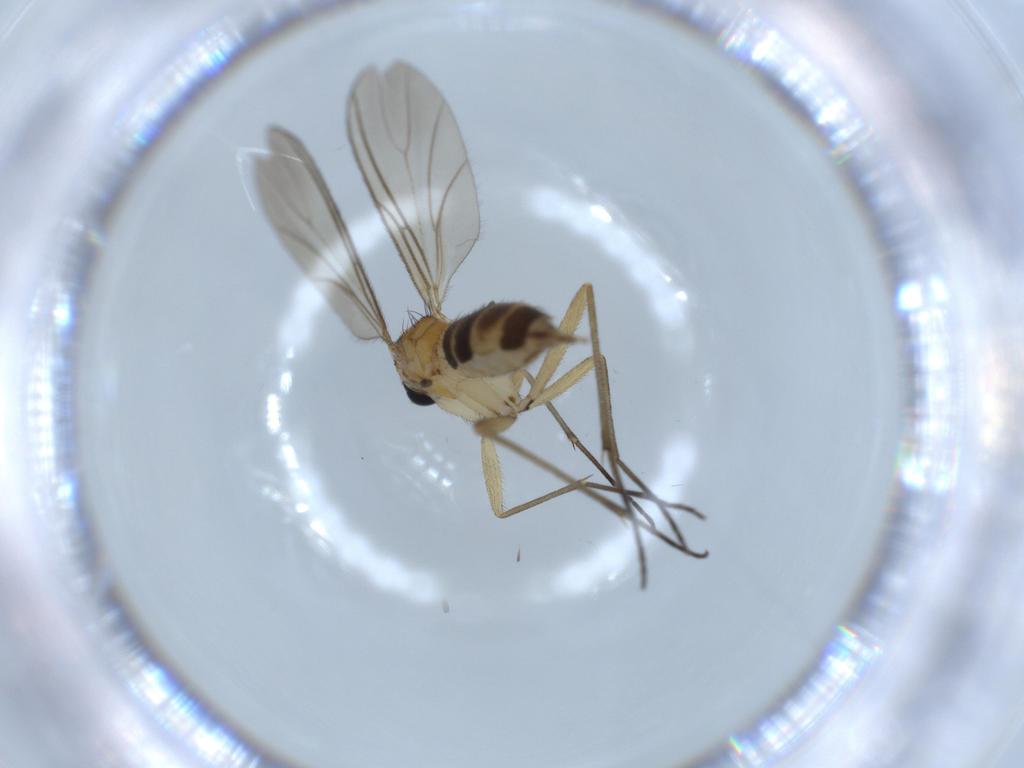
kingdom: Animalia
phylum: Arthropoda
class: Insecta
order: Diptera
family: Sciaridae
